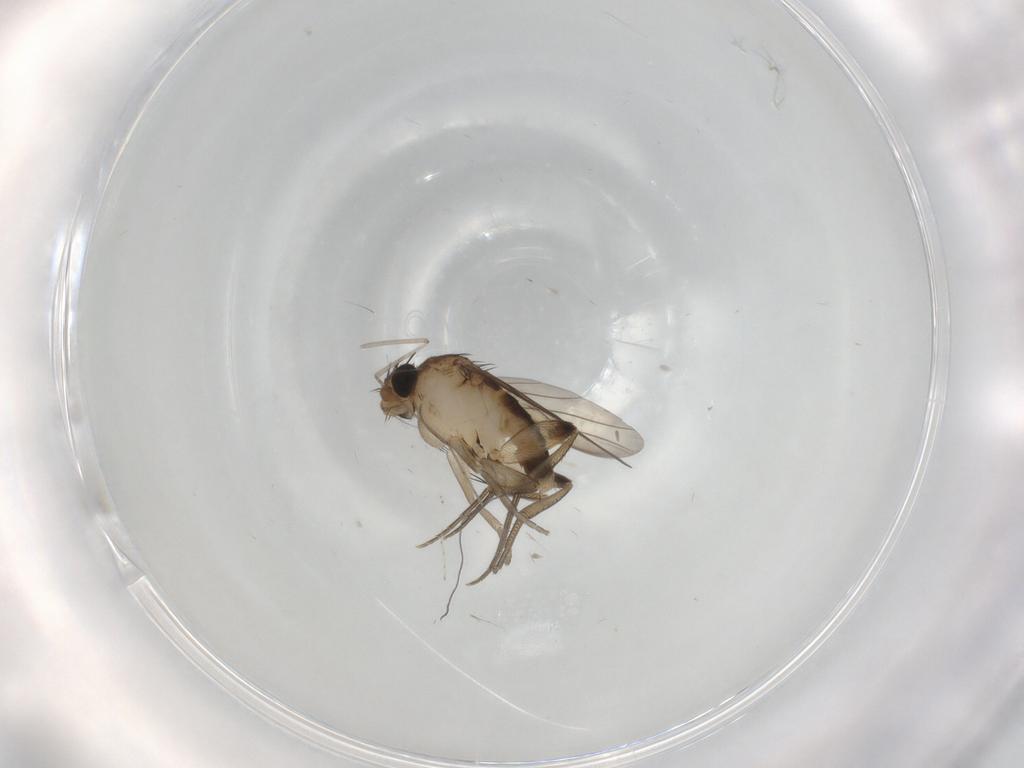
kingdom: Animalia
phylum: Arthropoda
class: Insecta
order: Diptera
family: Phoridae
